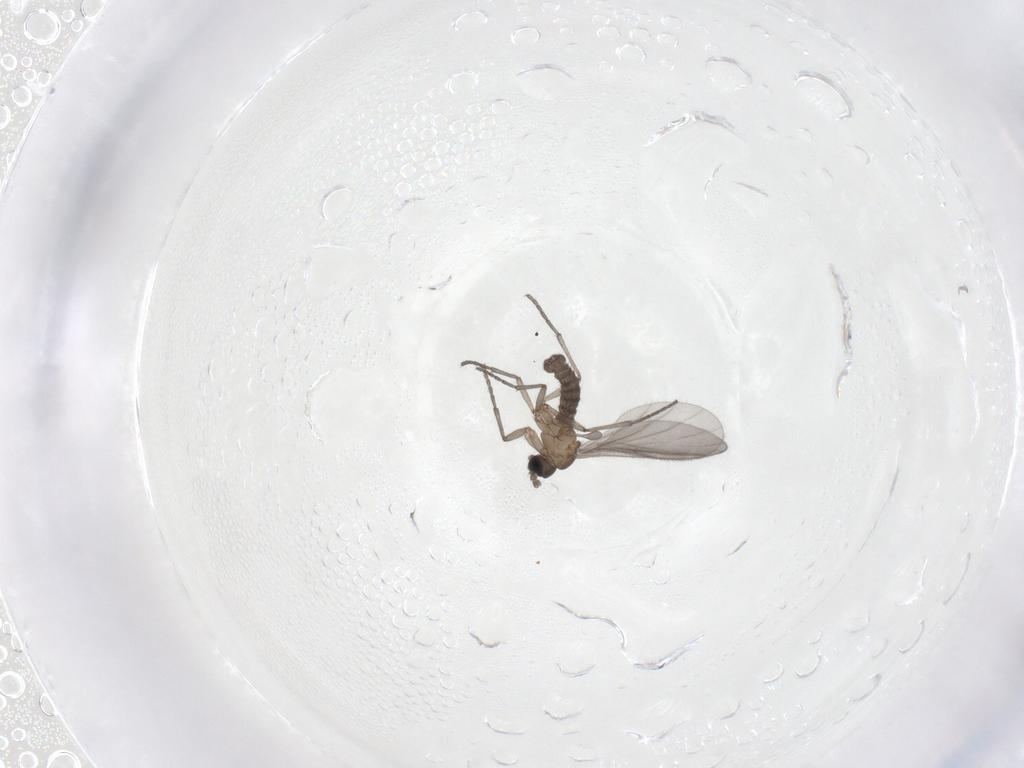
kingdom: Animalia
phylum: Arthropoda
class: Insecta
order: Diptera
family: Sciaridae
